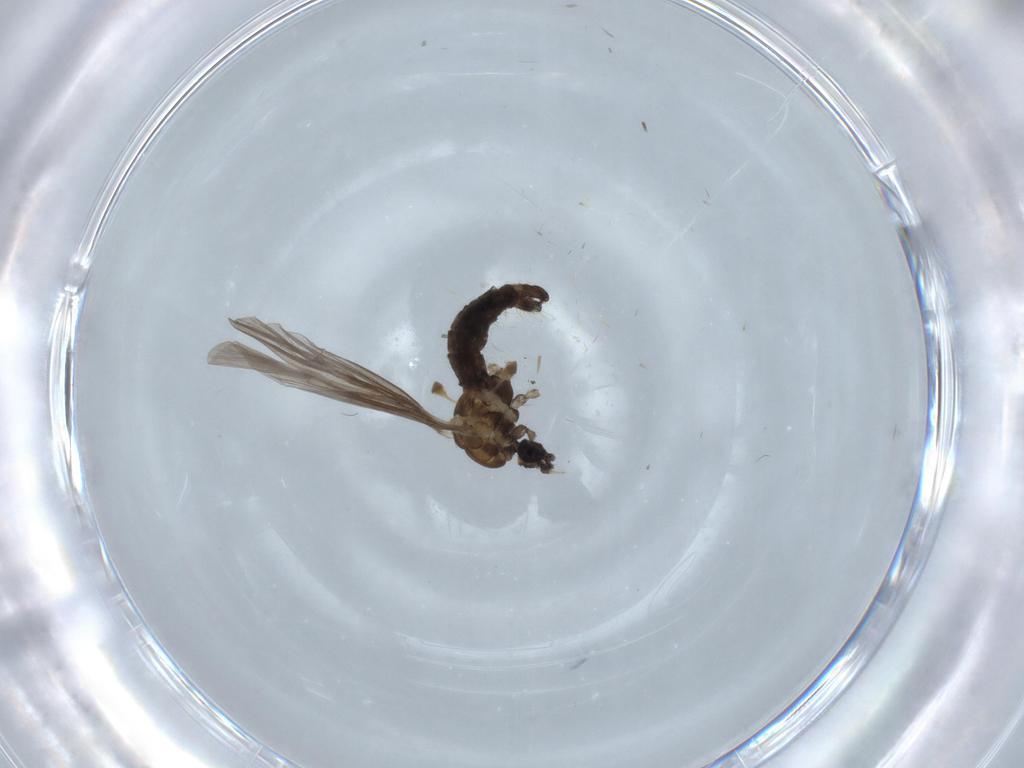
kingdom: Animalia
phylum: Arthropoda
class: Insecta
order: Diptera
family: Limoniidae
